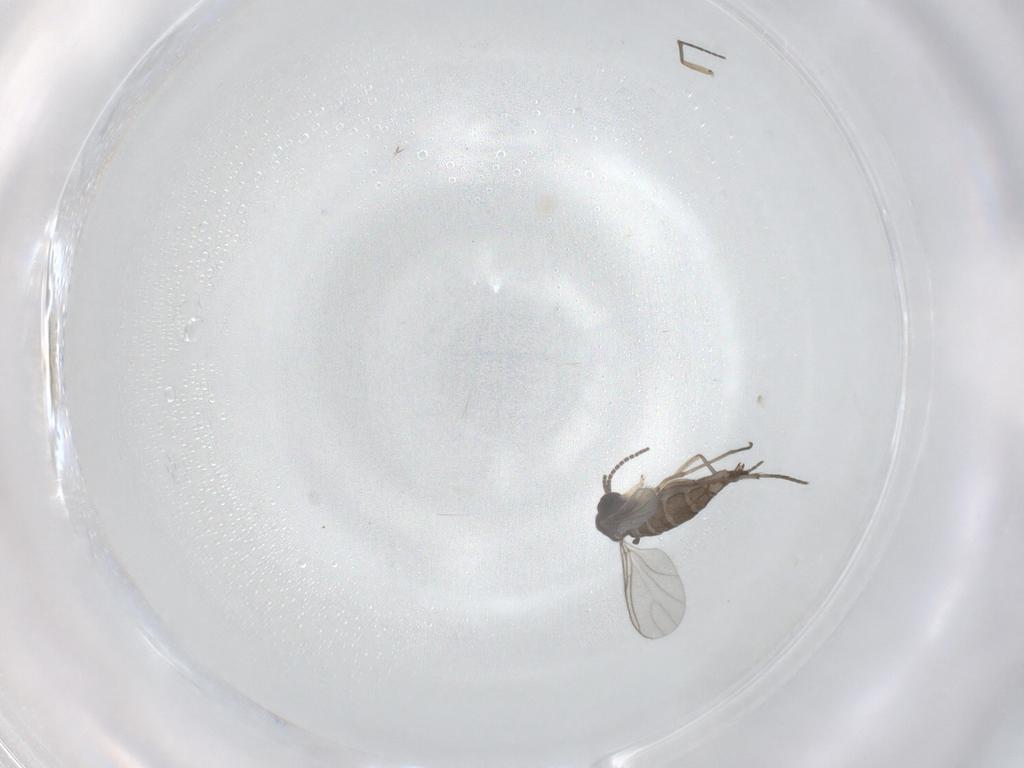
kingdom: Animalia
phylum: Arthropoda
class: Insecta
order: Diptera
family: Sciaridae
